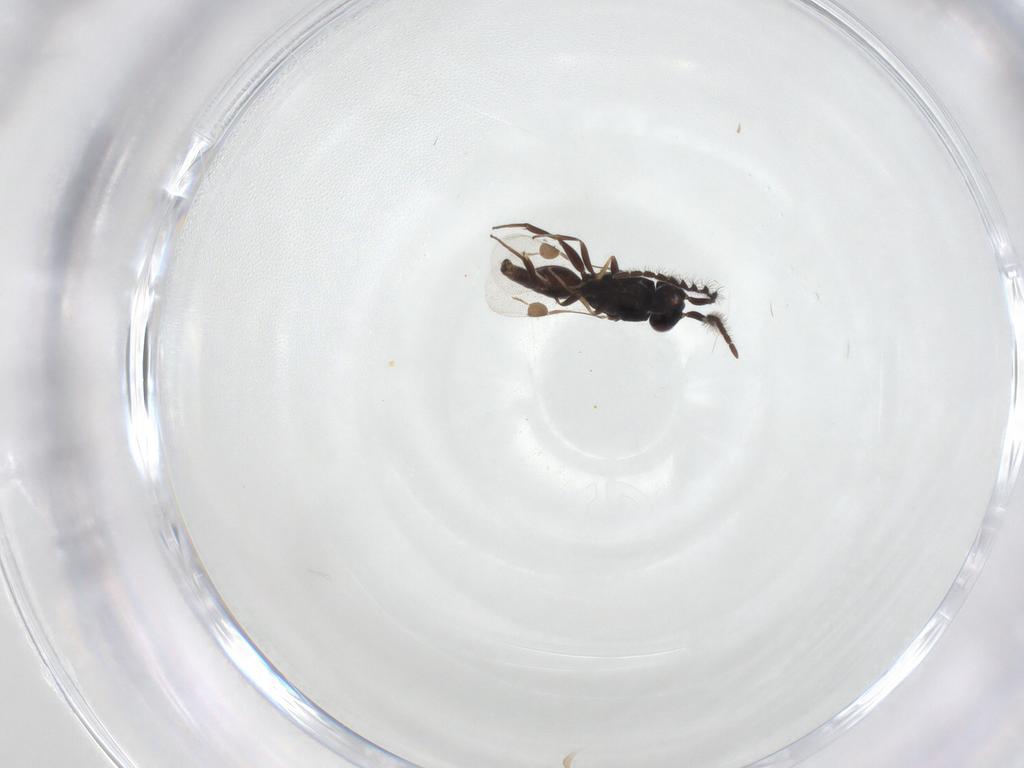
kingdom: Animalia
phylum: Arthropoda
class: Insecta
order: Hymenoptera
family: Megaspilidae
